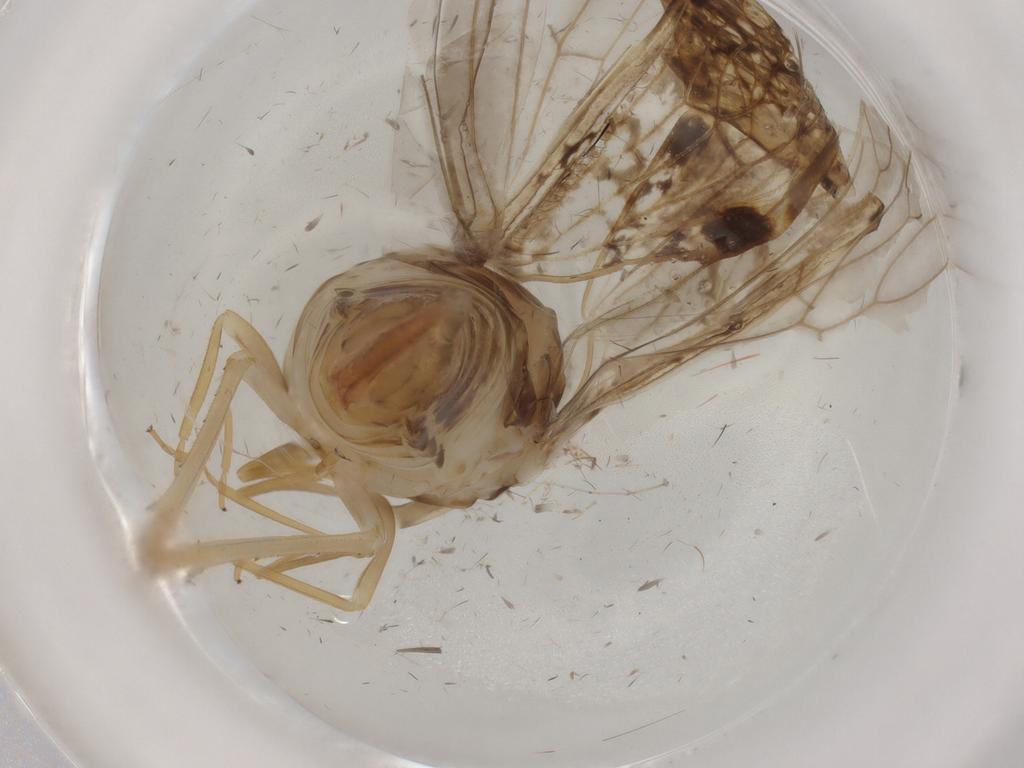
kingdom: Animalia
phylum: Arthropoda
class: Insecta
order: Hemiptera
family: Cixiidae
